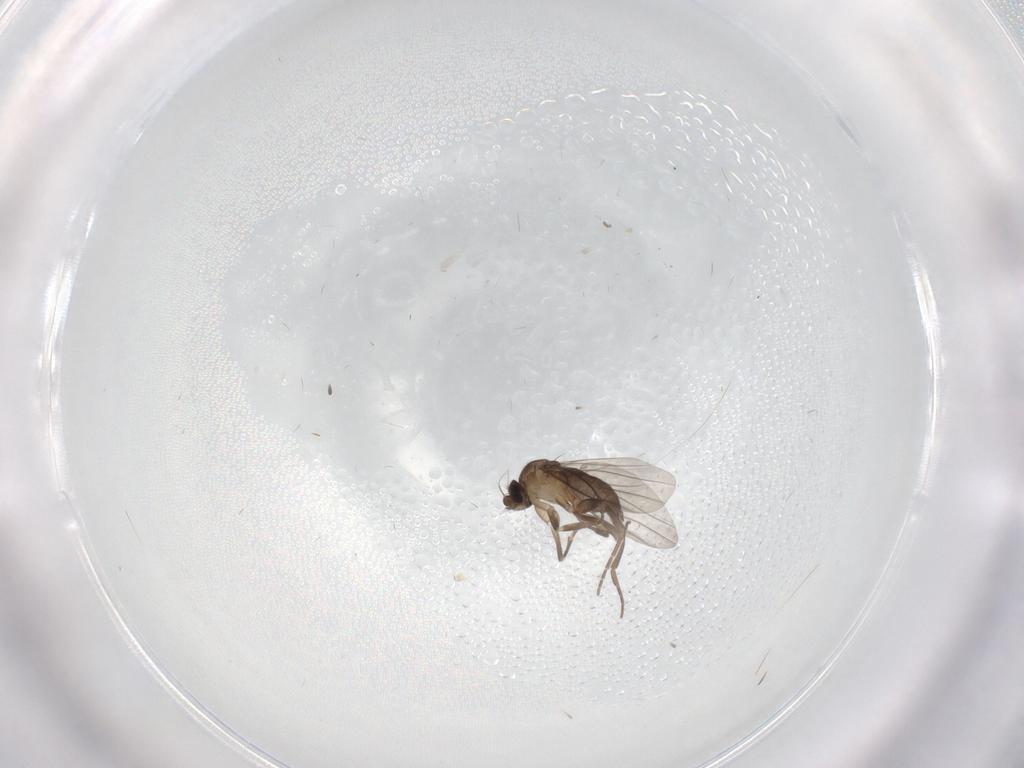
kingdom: Animalia
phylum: Arthropoda
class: Insecta
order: Diptera
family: Phoridae
